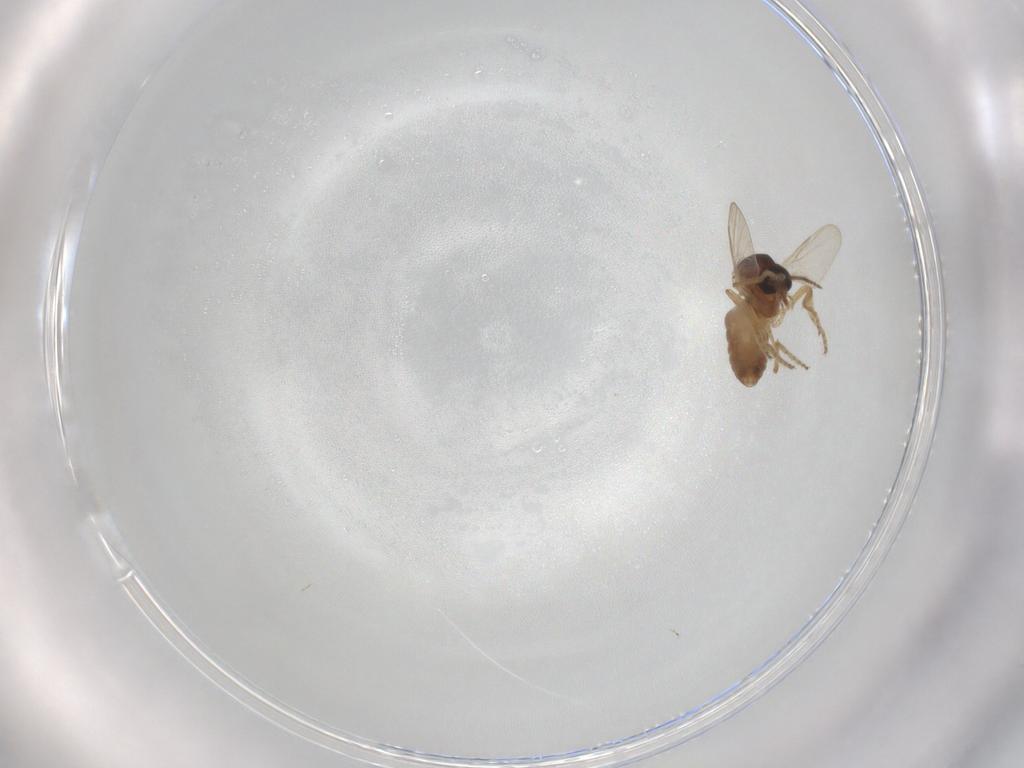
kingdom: Animalia
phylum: Arthropoda
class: Insecta
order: Diptera
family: Ceratopogonidae
